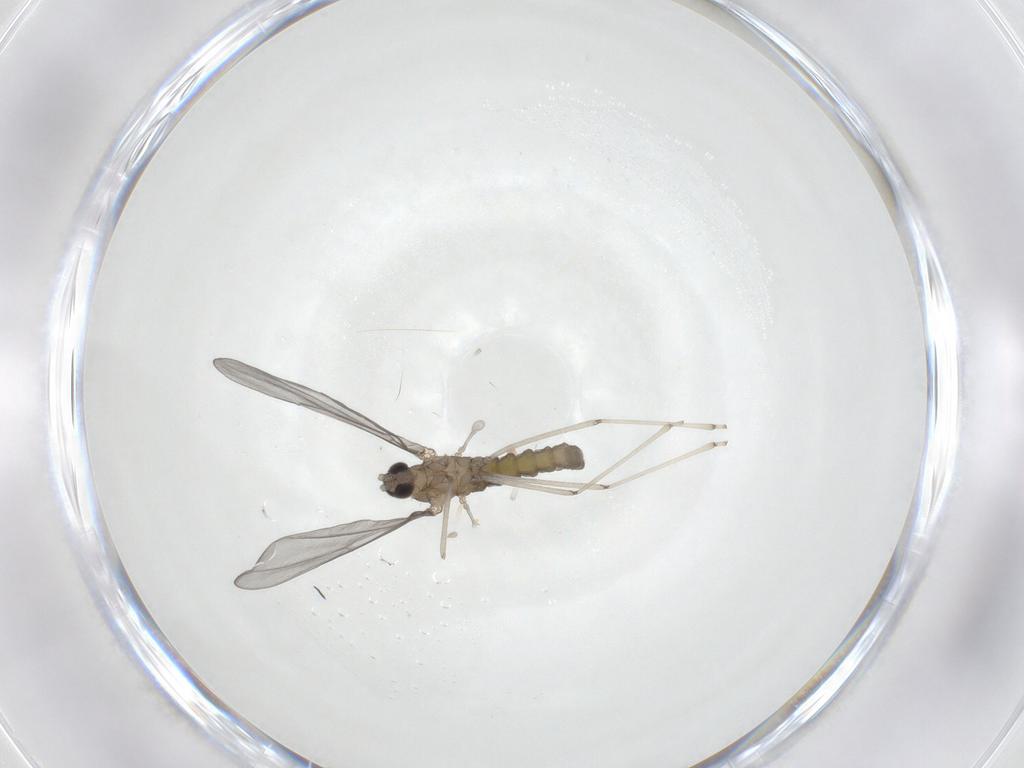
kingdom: Animalia
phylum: Arthropoda
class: Insecta
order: Diptera
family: Cecidomyiidae
